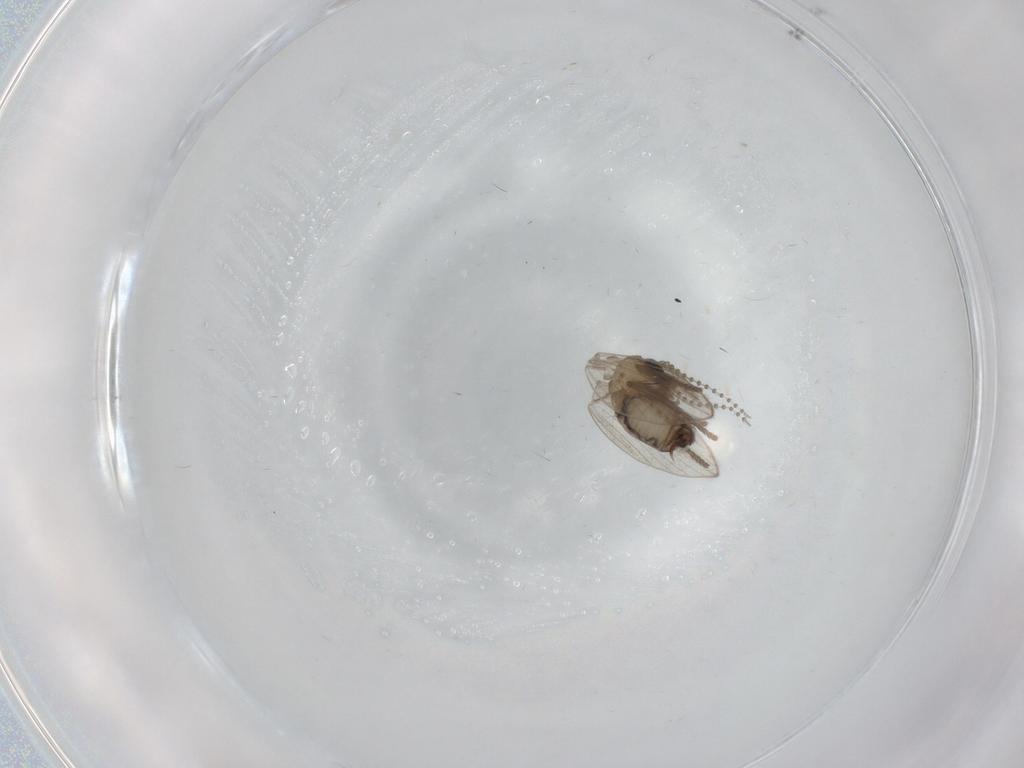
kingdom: Animalia
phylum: Arthropoda
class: Insecta
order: Diptera
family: Psychodidae
